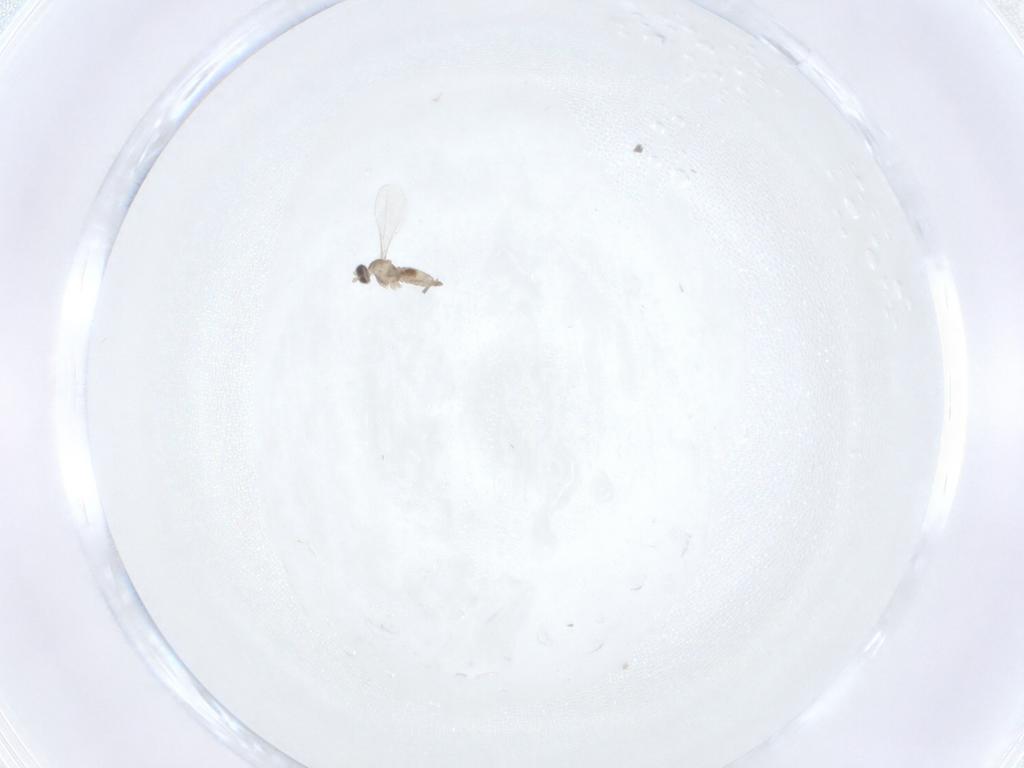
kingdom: Animalia
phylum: Arthropoda
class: Insecta
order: Diptera
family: Cecidomyiidae
